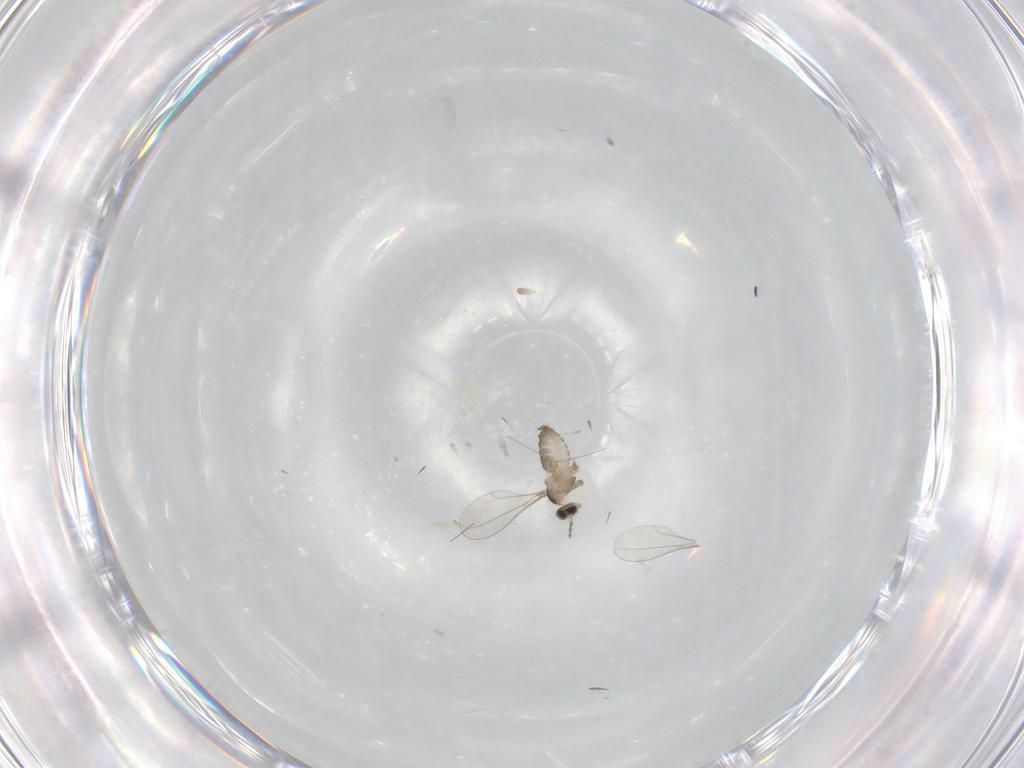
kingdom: Animalia
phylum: Arthropoda
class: Insecta
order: Diptera
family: Cecidomyiidae
